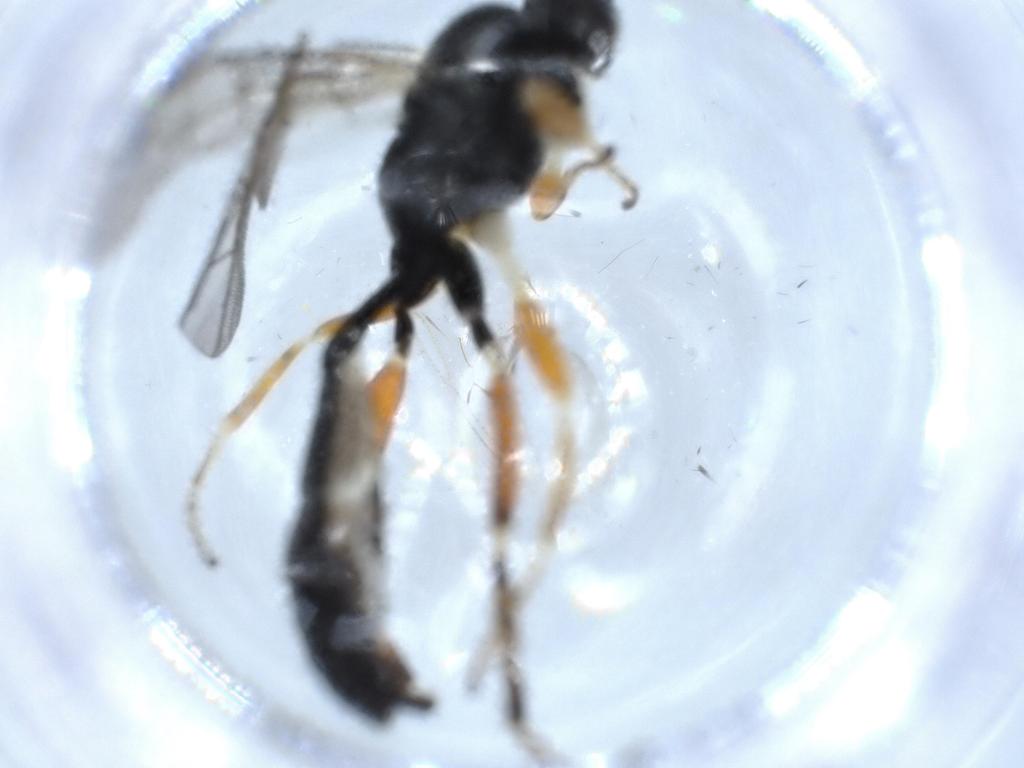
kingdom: Animalia
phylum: Arthropoda
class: Insecta
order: Hymenoptera
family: Ichneumonidae
